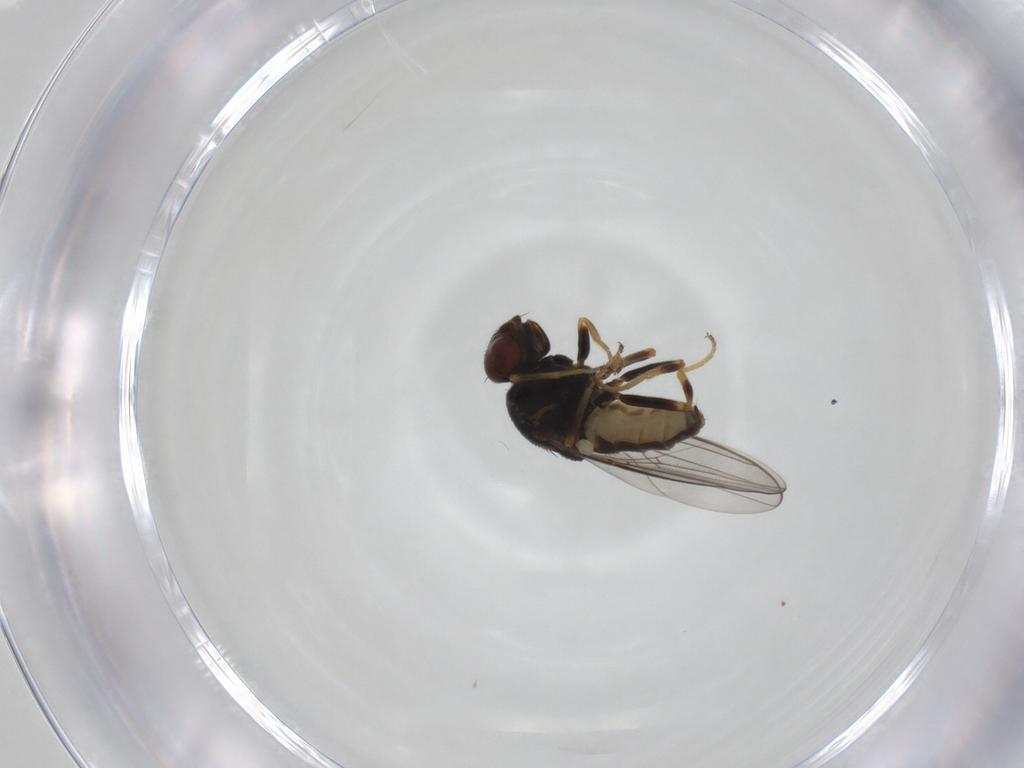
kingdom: Animalia
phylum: Arthropoda
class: Insecta
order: Diptera
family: Chloropidae
